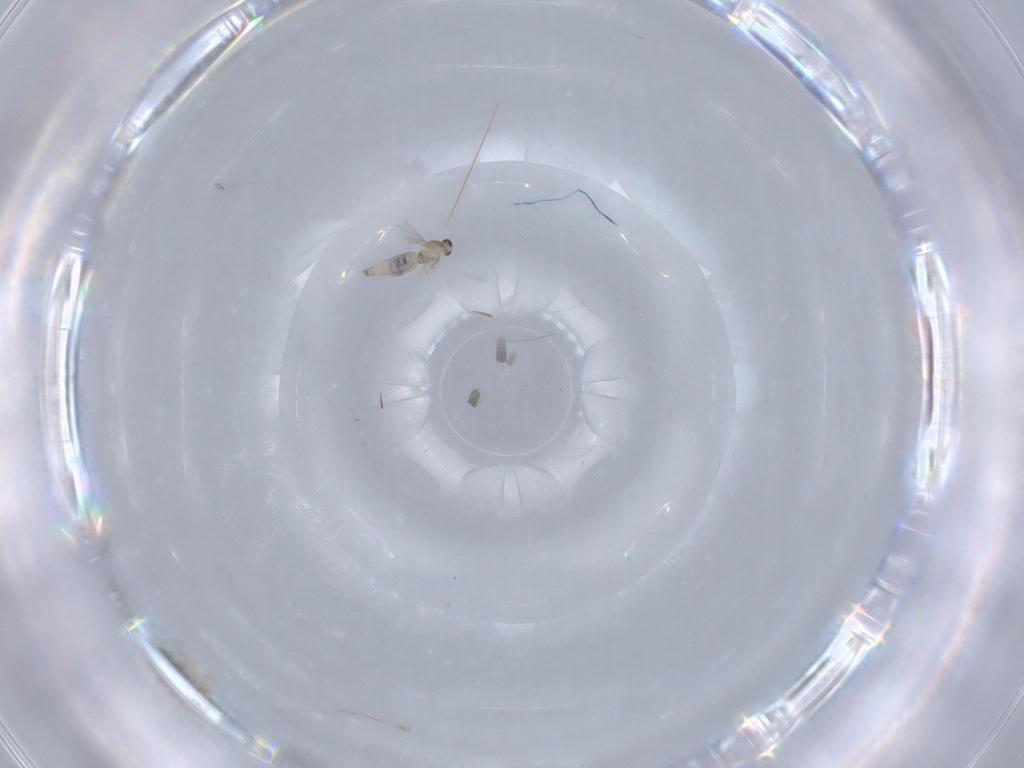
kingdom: Animalia
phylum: Arthropoda
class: Insecta
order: Diptera
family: Cecidomyiidae
